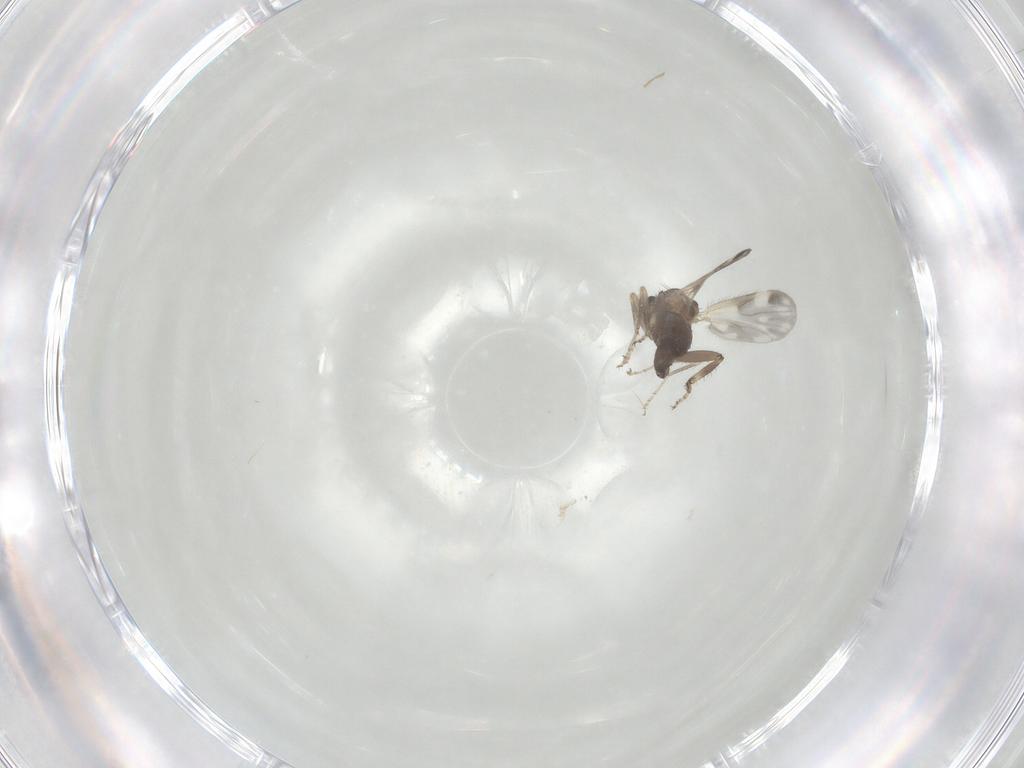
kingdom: Animalia
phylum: Arthropoda
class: Insecta
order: Diptera
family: Ceratopogonidae
